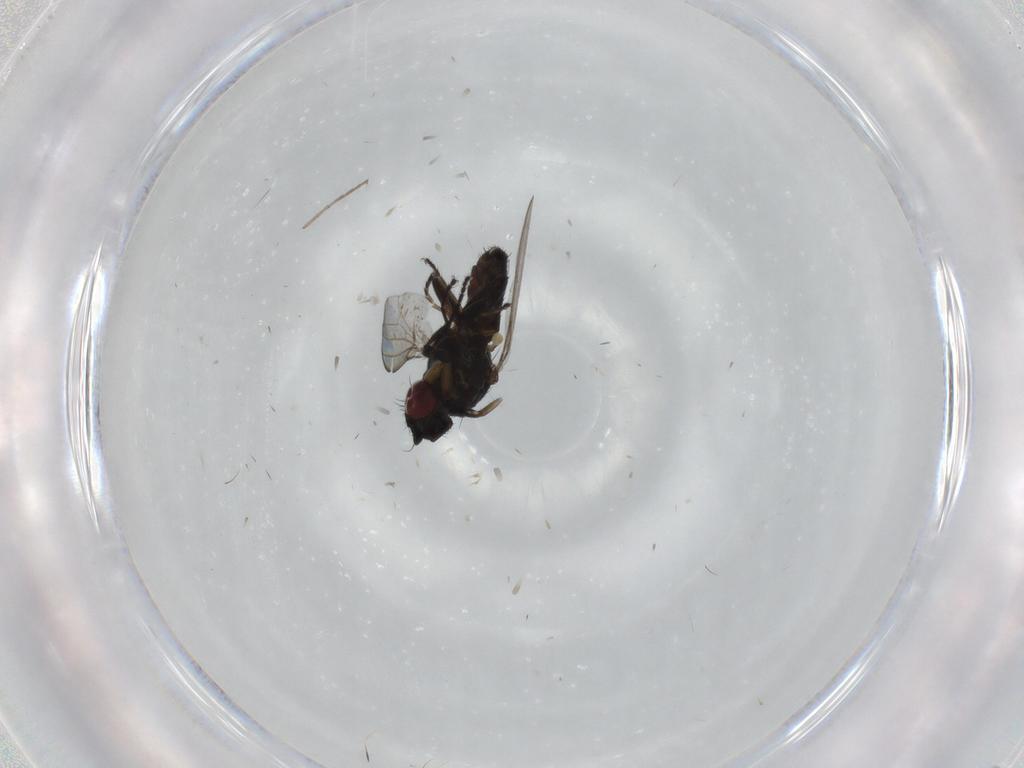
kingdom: Animalia
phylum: Arthropoda
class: Insecta
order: Diptera
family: Milichiidae
